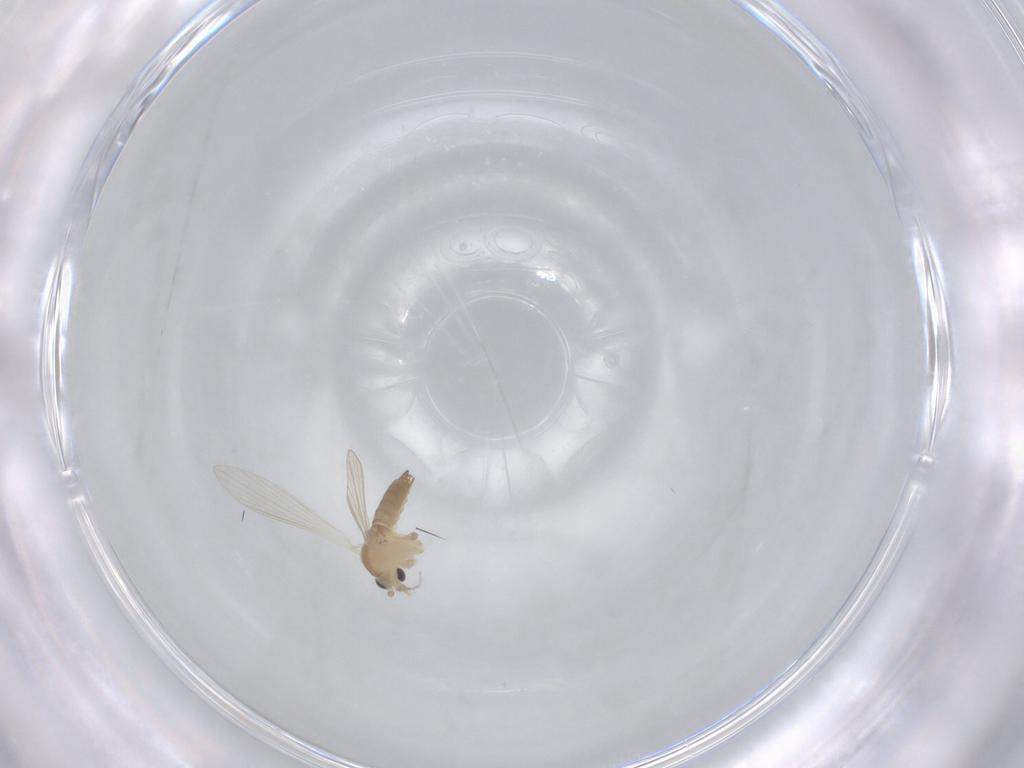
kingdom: Animalia
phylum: Arthropoda
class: Insecta
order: Diptera
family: Psychodidae
